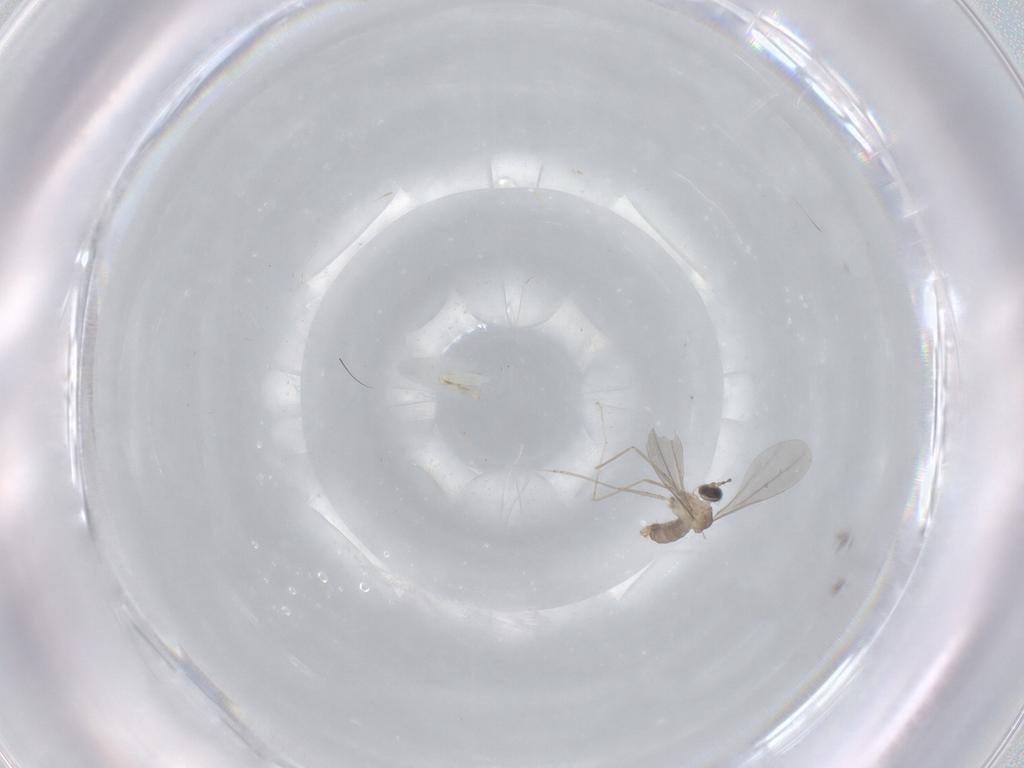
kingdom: Animalia
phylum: Arthropoda
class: Insecta
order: Diptera
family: Cecidomyiidae
